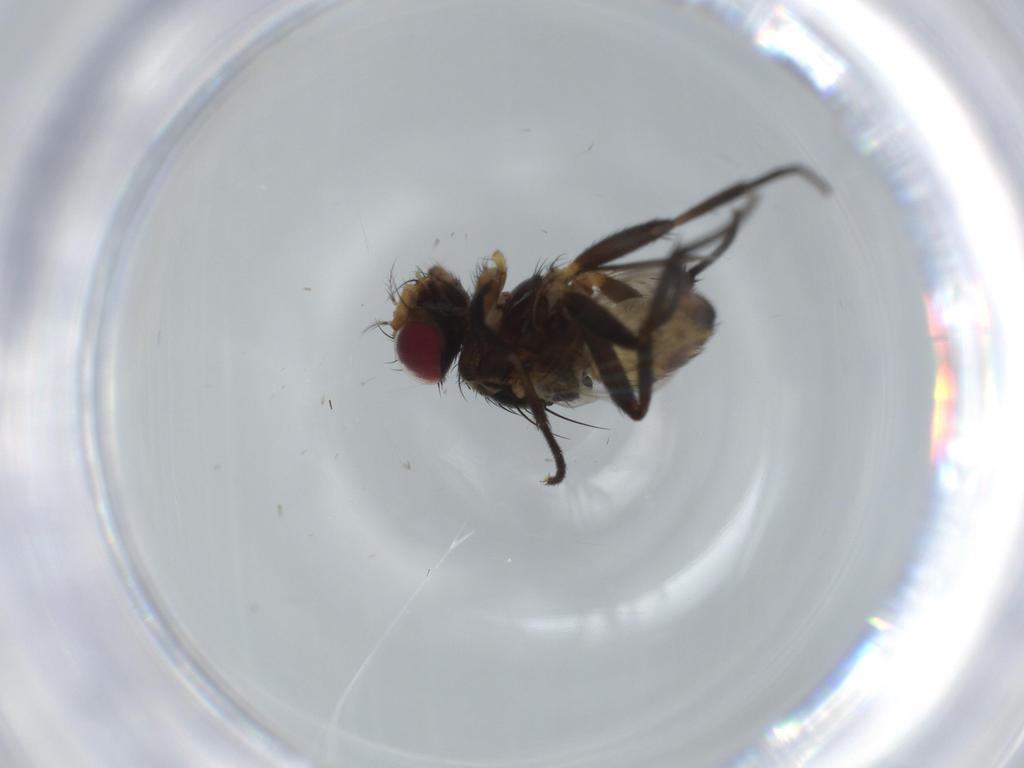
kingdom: Animalia
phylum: Arthropoda
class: Insecta
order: Diptera
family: Anthomyiidae
